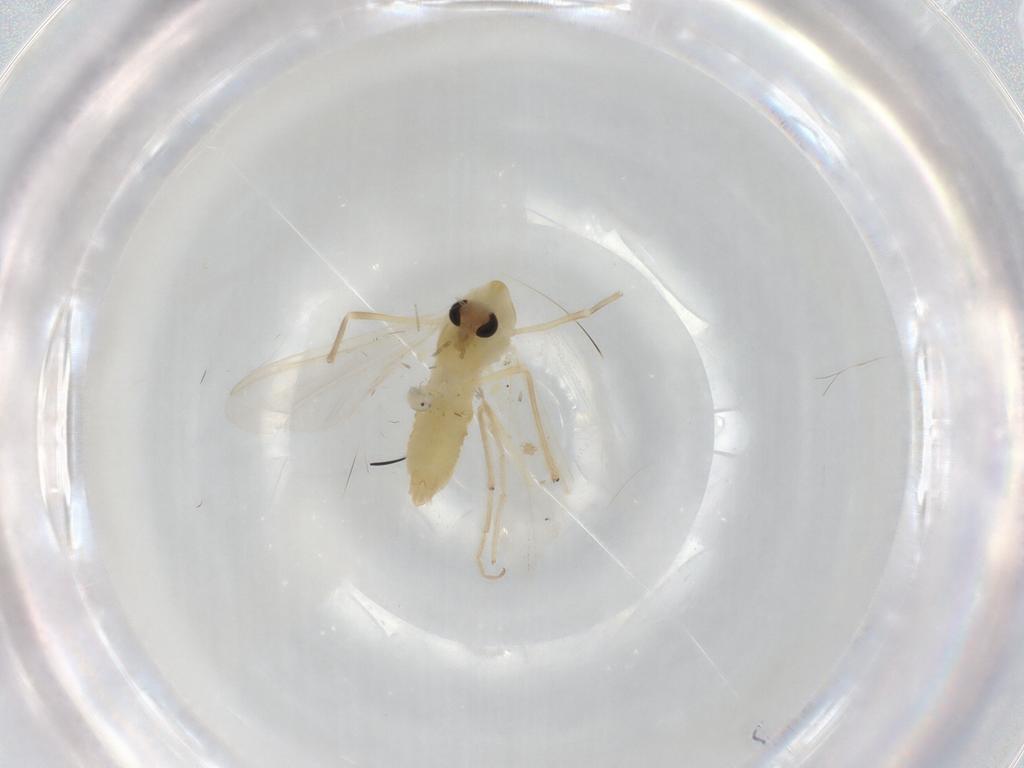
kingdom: Animalia
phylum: Arthropoda
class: Insecta
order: Diptera
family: Chironomidae
